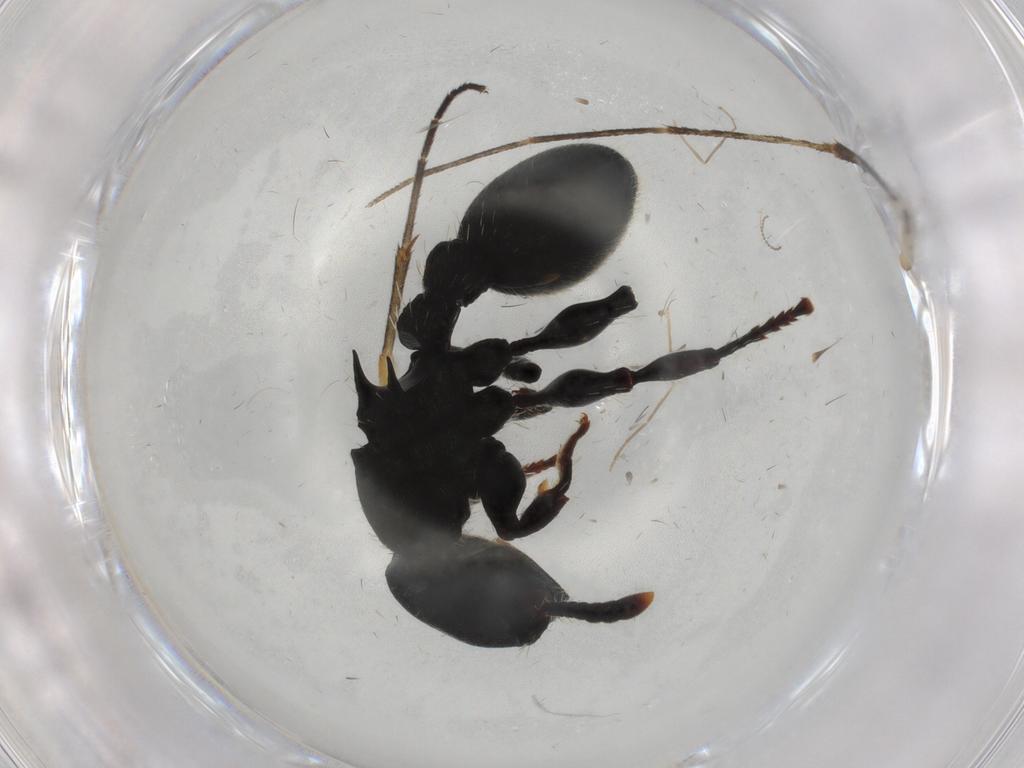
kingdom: Animalia
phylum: Arthropoda
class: Insecta
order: Hymenoptera
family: Formicidae
